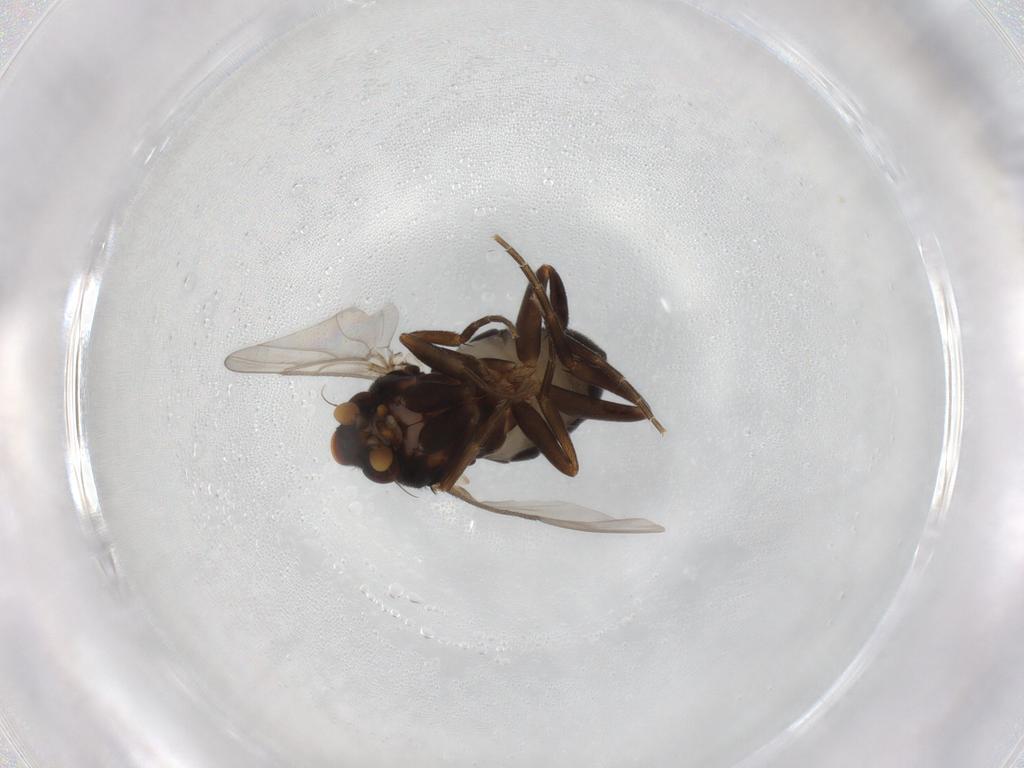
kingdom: Animalia
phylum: Arthropoda
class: Insecta
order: Diptera
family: Phoridae
